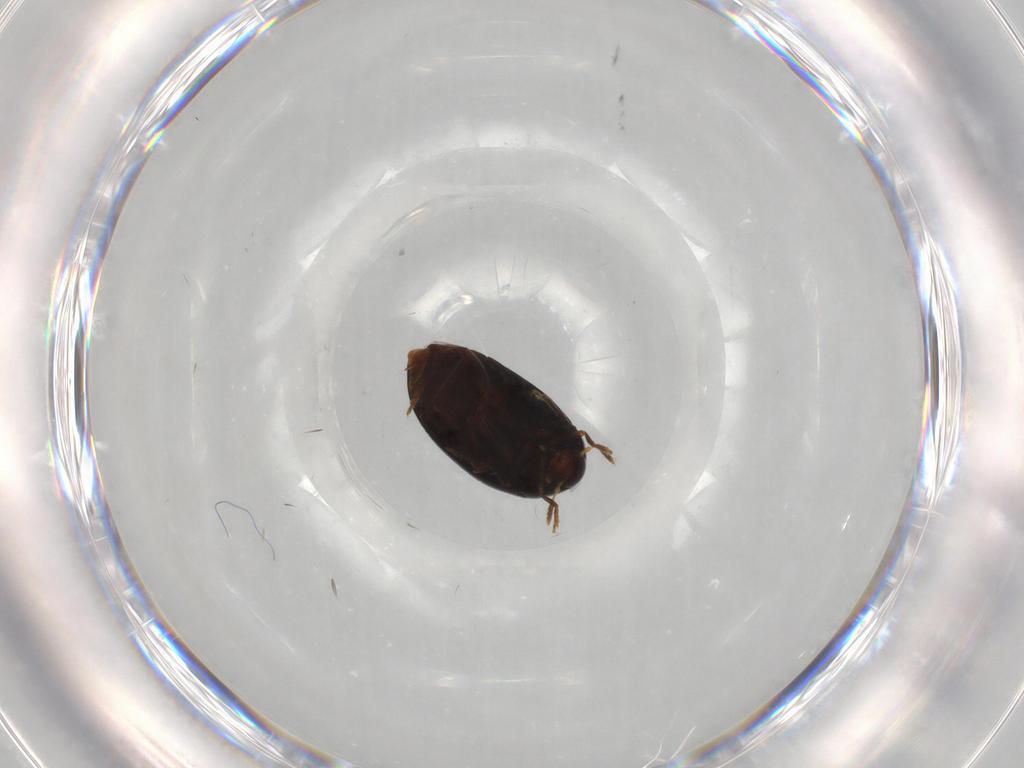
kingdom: Animalia
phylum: Arthropoda
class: Insecta
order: Coleoptera
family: Melandryidae
